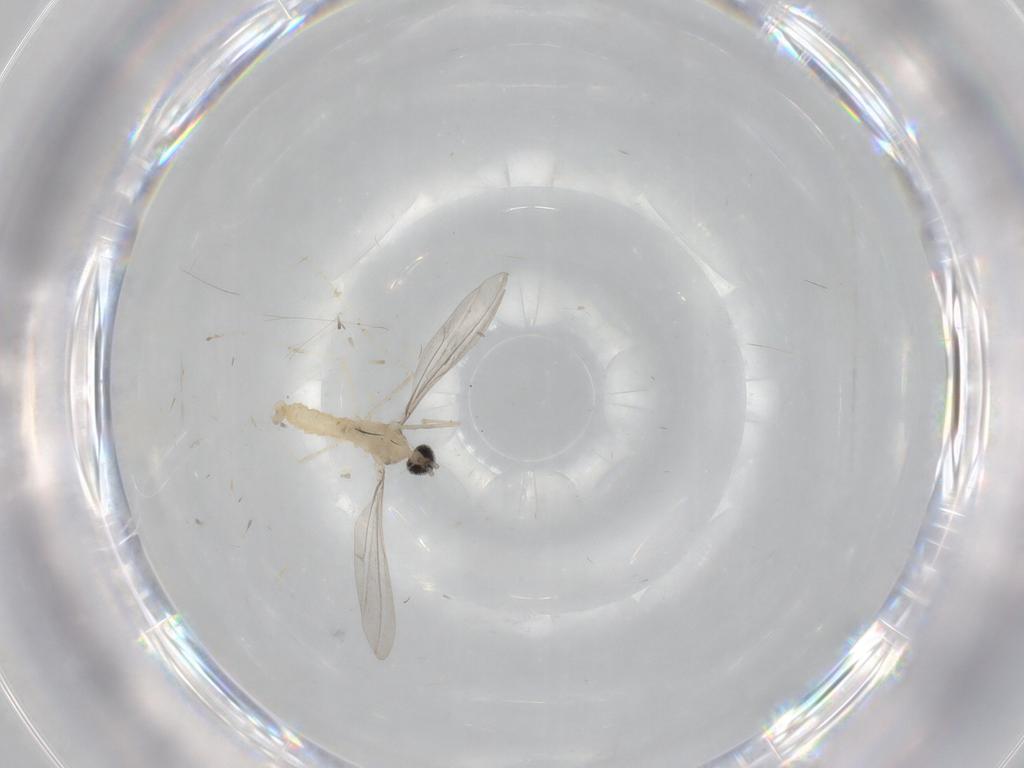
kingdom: Animalia
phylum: Arthropoda
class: Insecta
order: Diptera
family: Cecidomyiidae
